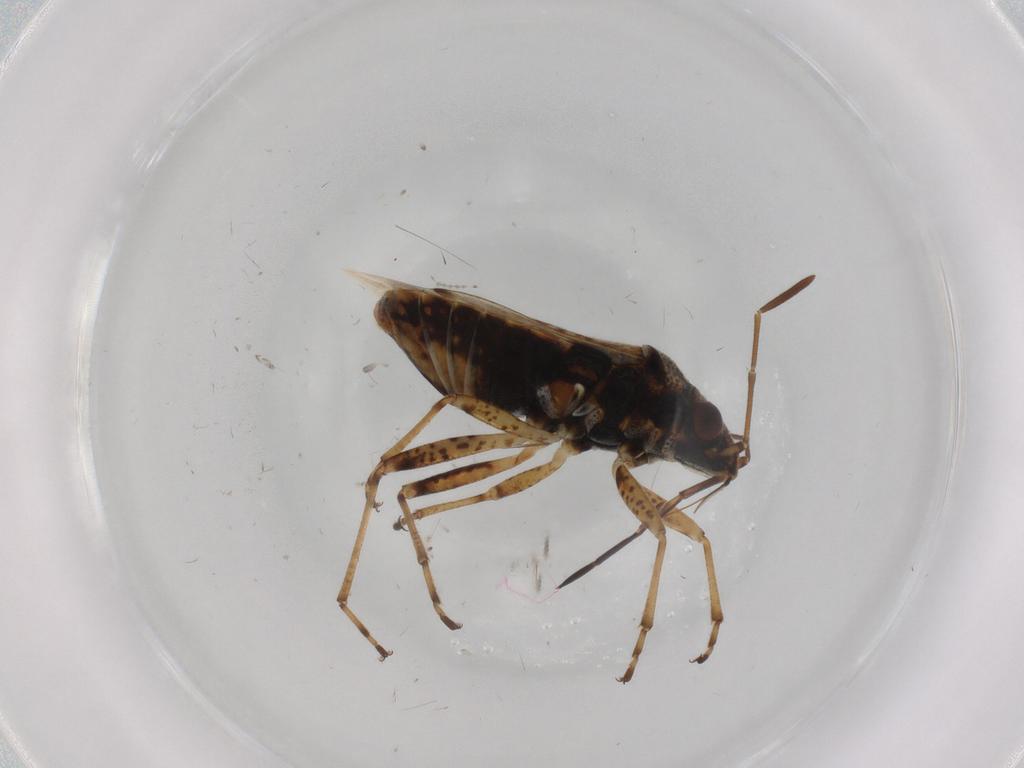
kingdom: Animalia
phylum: Arthropoda
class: Insecta
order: Hemiptera
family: Lygaeidae
